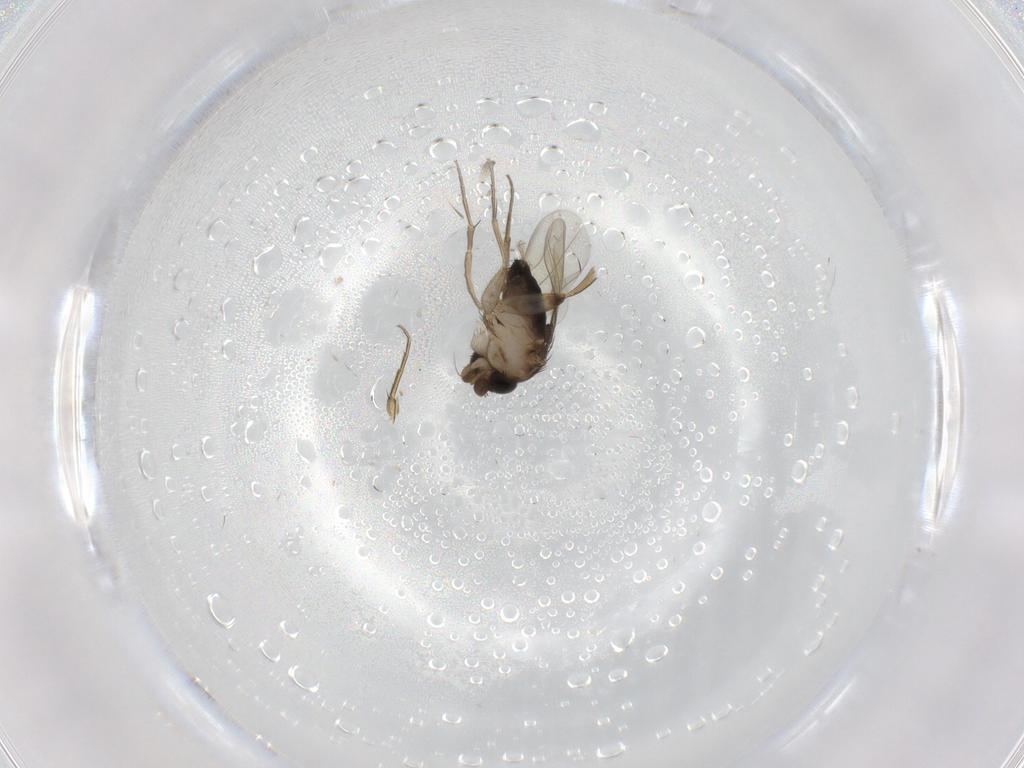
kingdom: Animalia
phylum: Arthropoda
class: Insecta
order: Diptera
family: Phoridae
